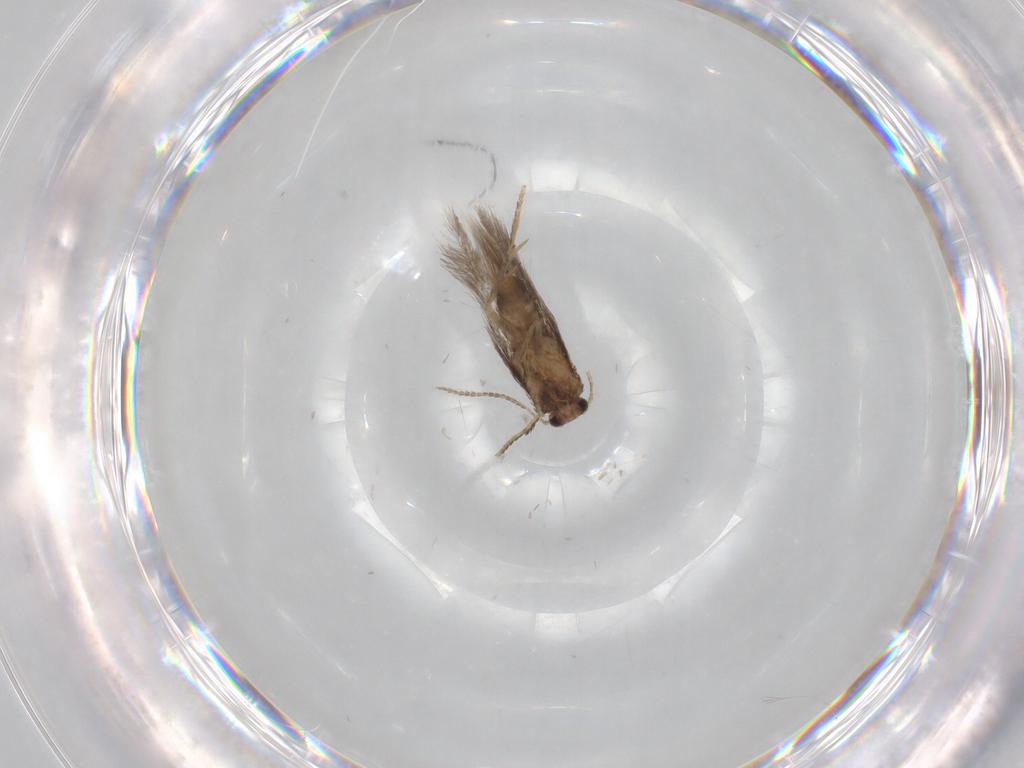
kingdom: Animalia
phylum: Arthropoda
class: Insecta
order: Lepidoptera
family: Nepticulidae
